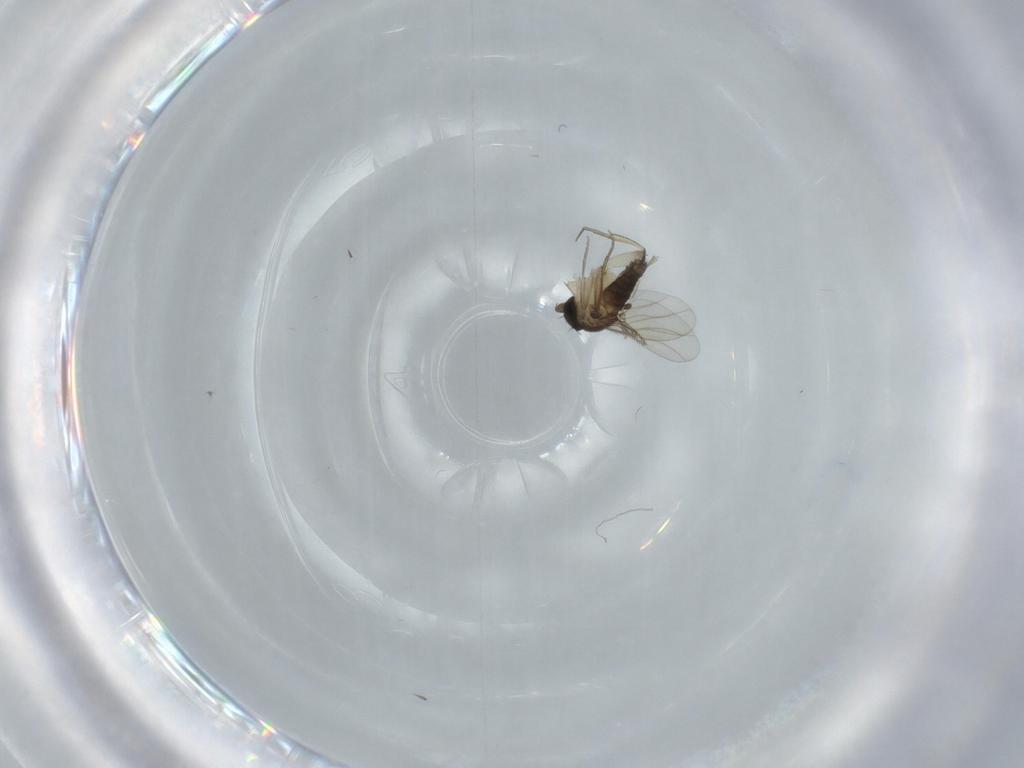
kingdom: Animalia
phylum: Arthropoda
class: Insecta
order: Diptera
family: Phoridae
